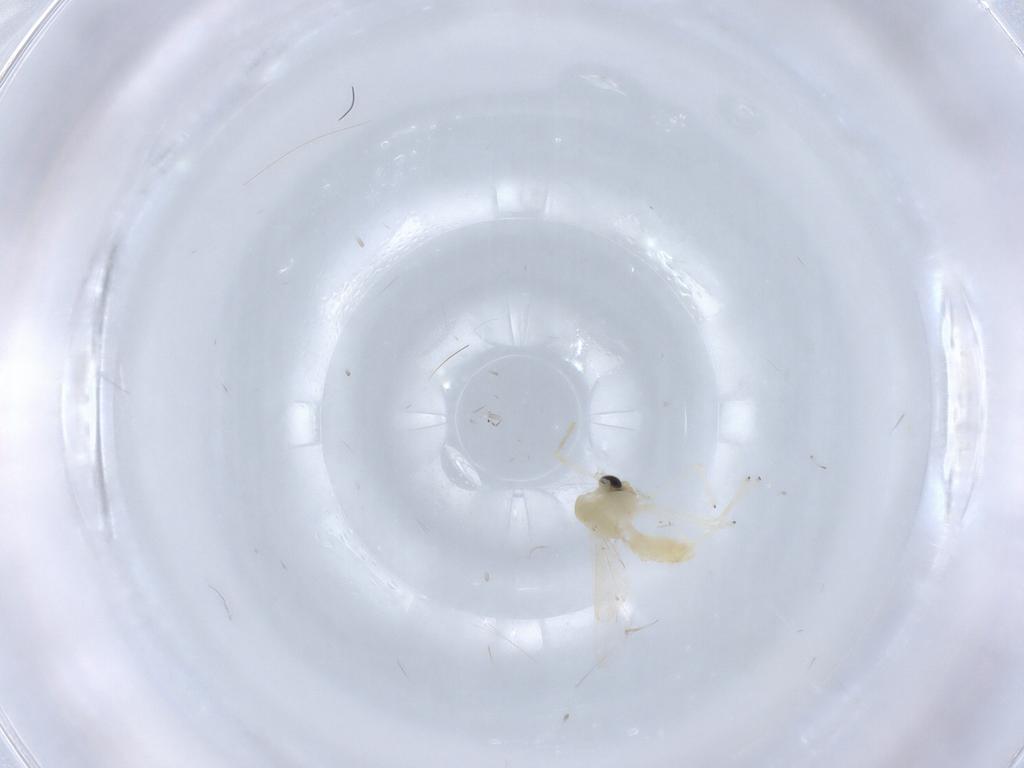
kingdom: Animalia
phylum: Arthropoda
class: Insecta
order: Diptera
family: Chironomidae
